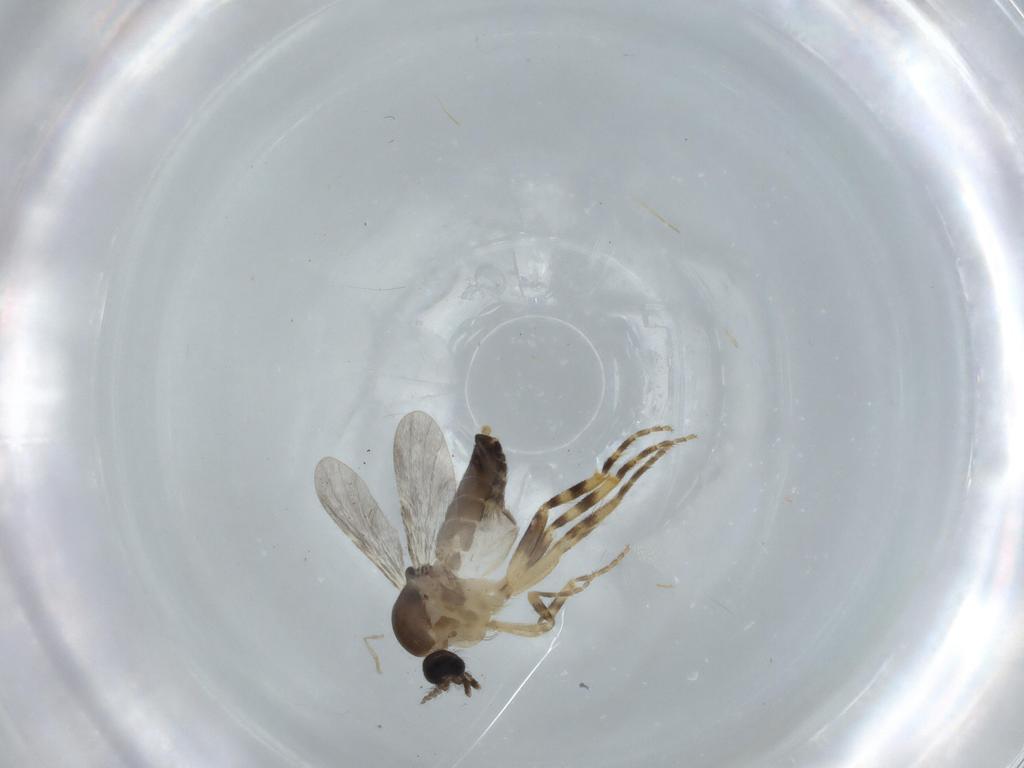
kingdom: Animalia
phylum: Arthropoda
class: Insecta
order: Diptera
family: Ceratopogonidae
